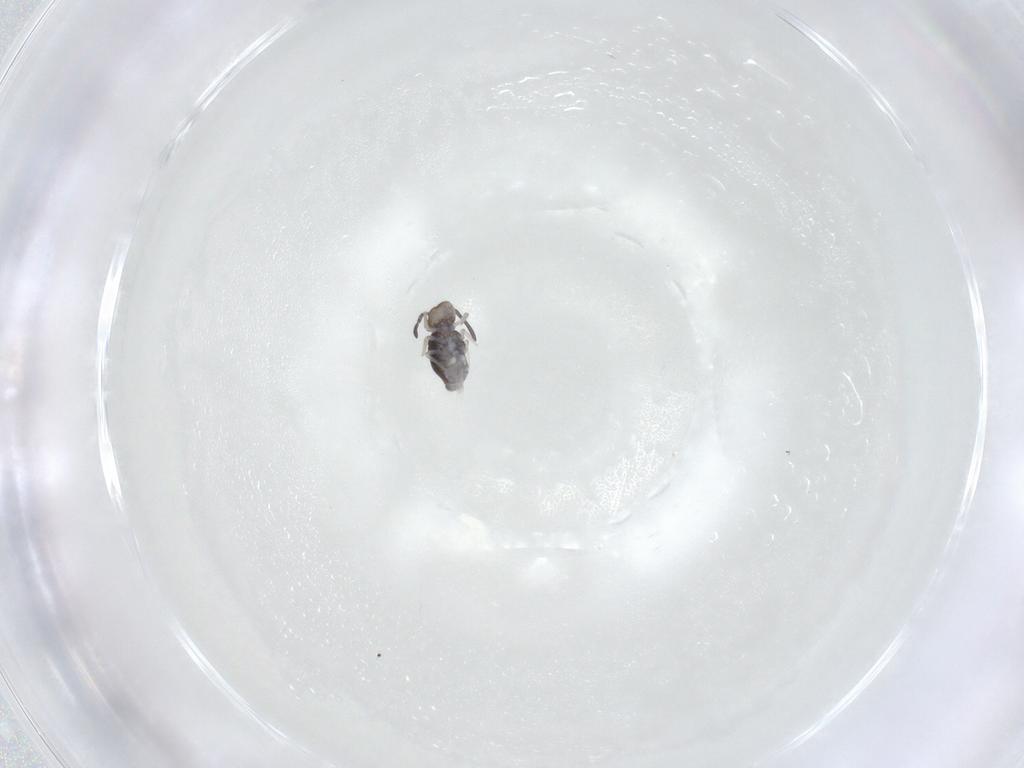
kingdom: Animalia
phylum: Arthropoda
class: Collembola
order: Symphypleona
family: Katiannidae
